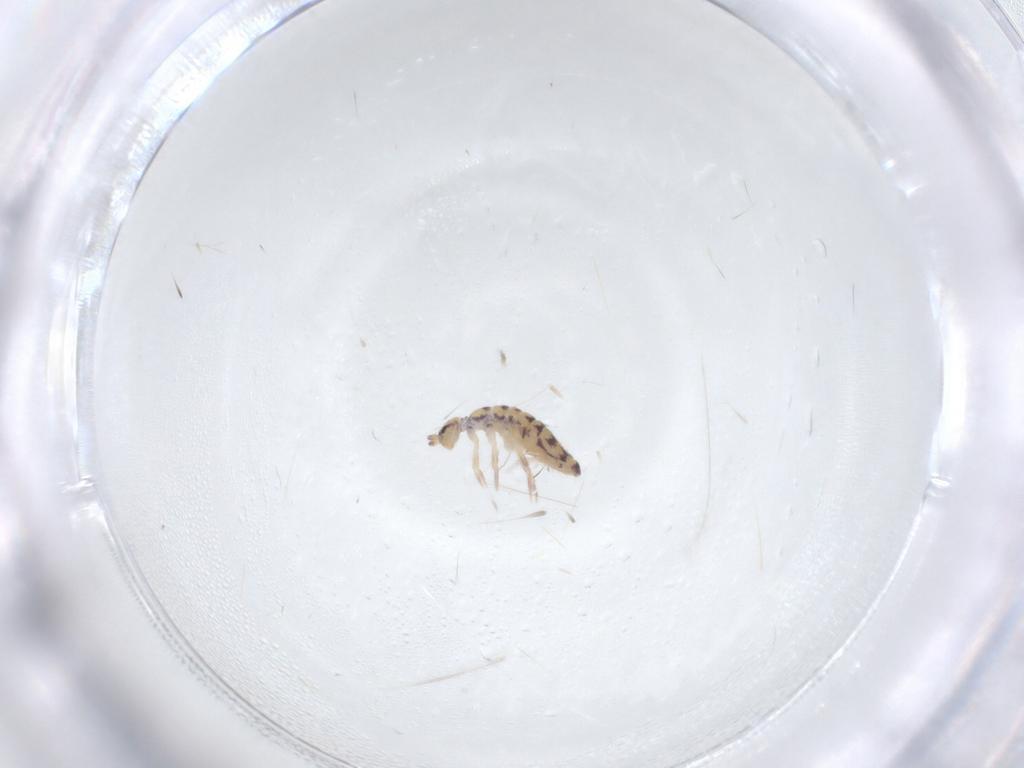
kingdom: Animalia
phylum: Arthropoda
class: Collembola
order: Entomobryomorpha
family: Entomobryidae
